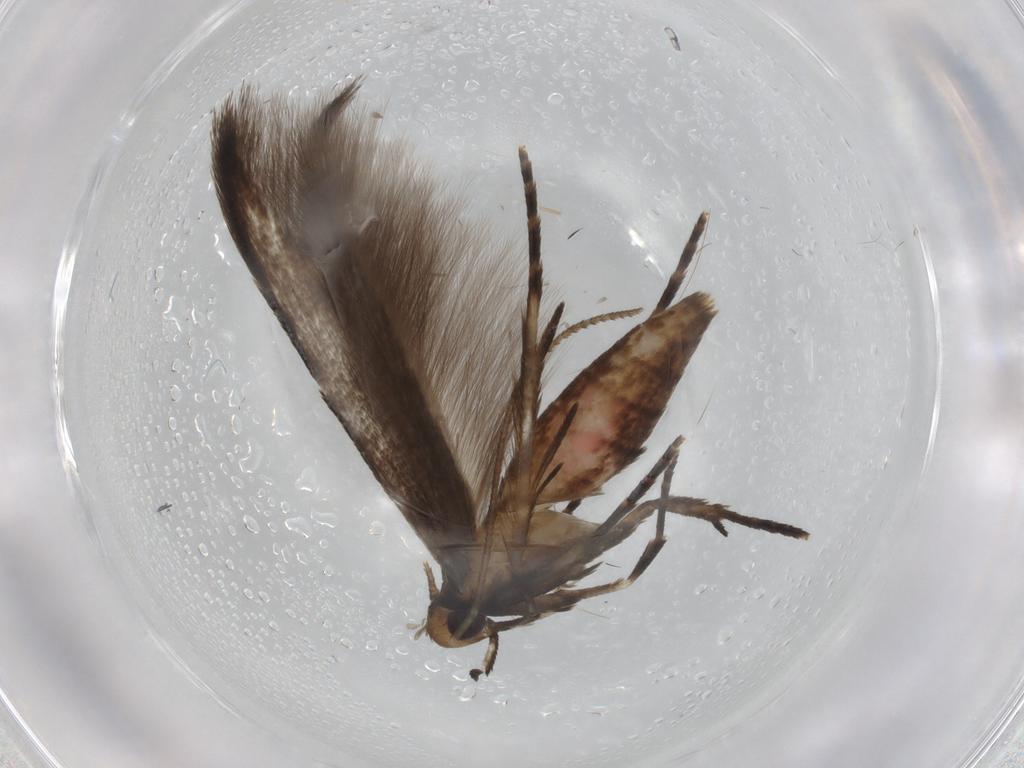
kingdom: Animalia
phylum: Arthropoda
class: Insecta
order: Lepidoptera
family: Cosmopterigidae
